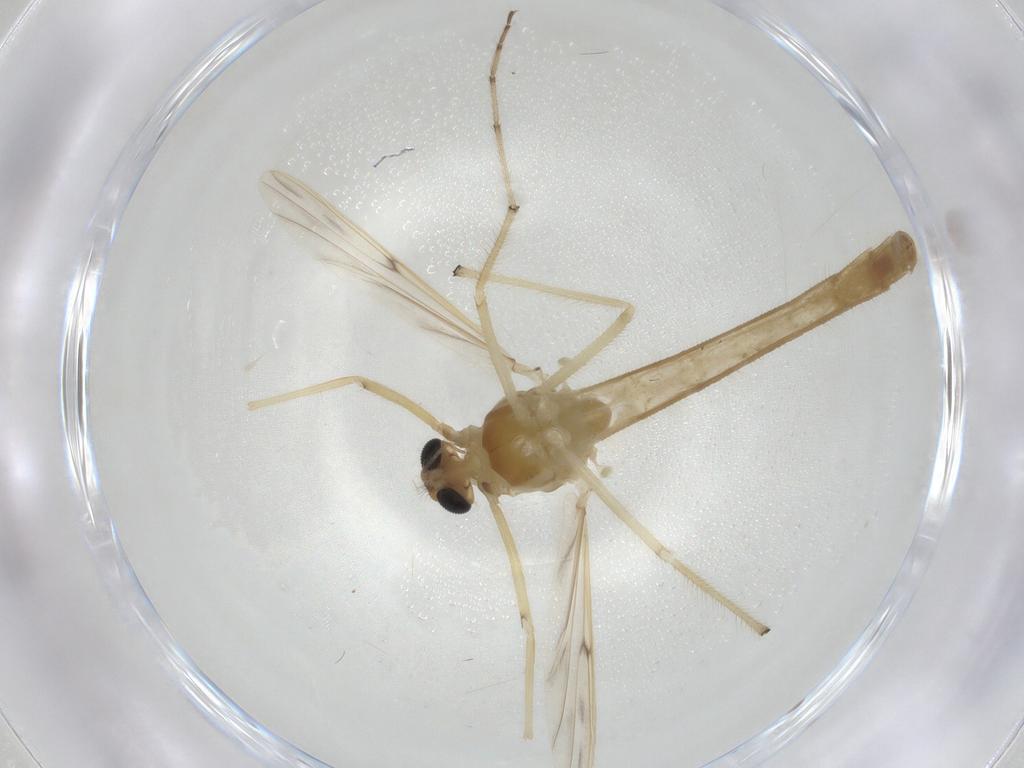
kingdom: Animalia
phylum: Arthropoda
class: Insecta
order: Diptera
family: Chironomidae
